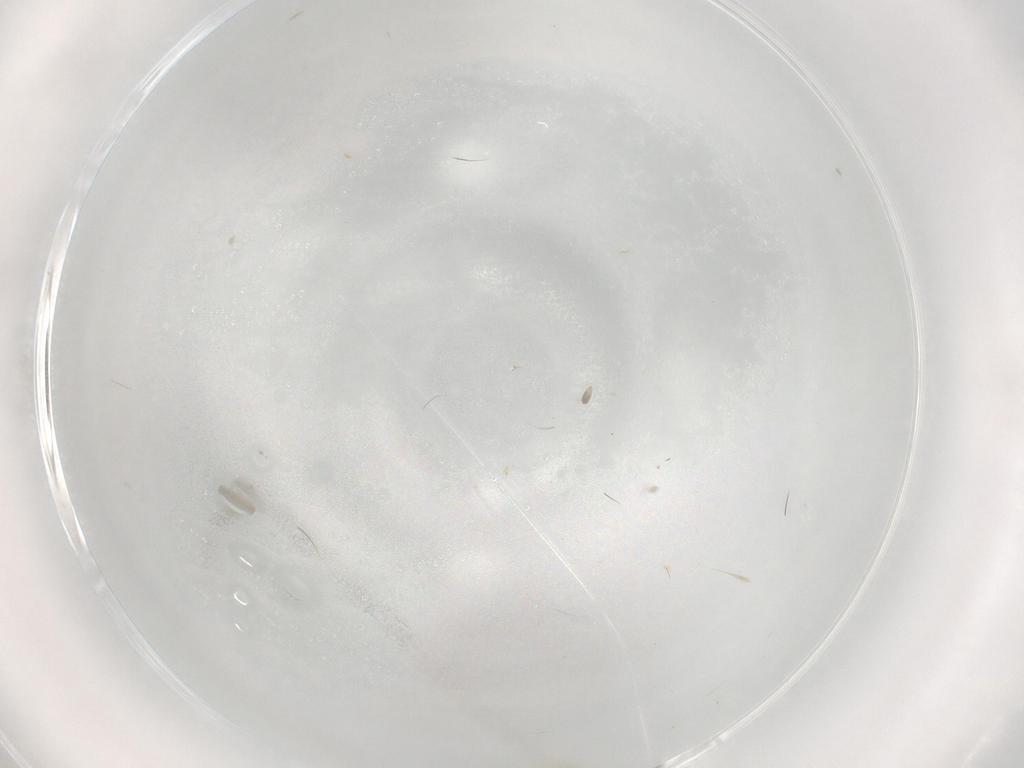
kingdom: Animalia
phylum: Arthropoda
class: Insecta
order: Hemiptera
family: Aleyrodidae
